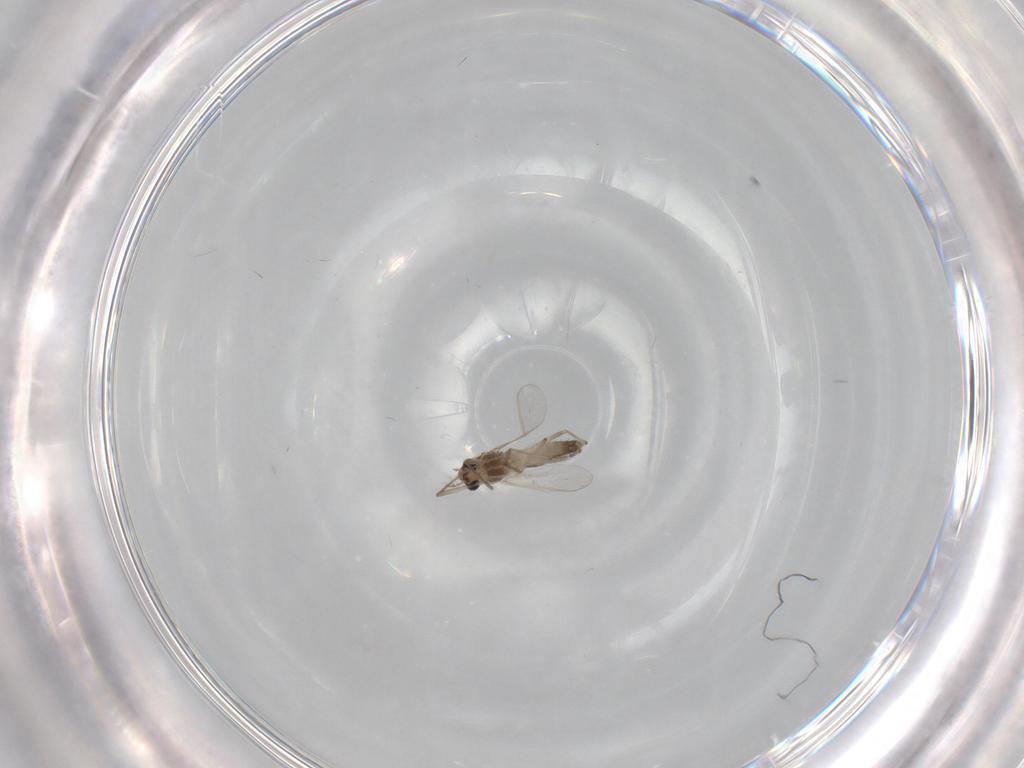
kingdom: Animalia
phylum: Arthropoda
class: Insecta
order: Diptera
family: Chironomidae
